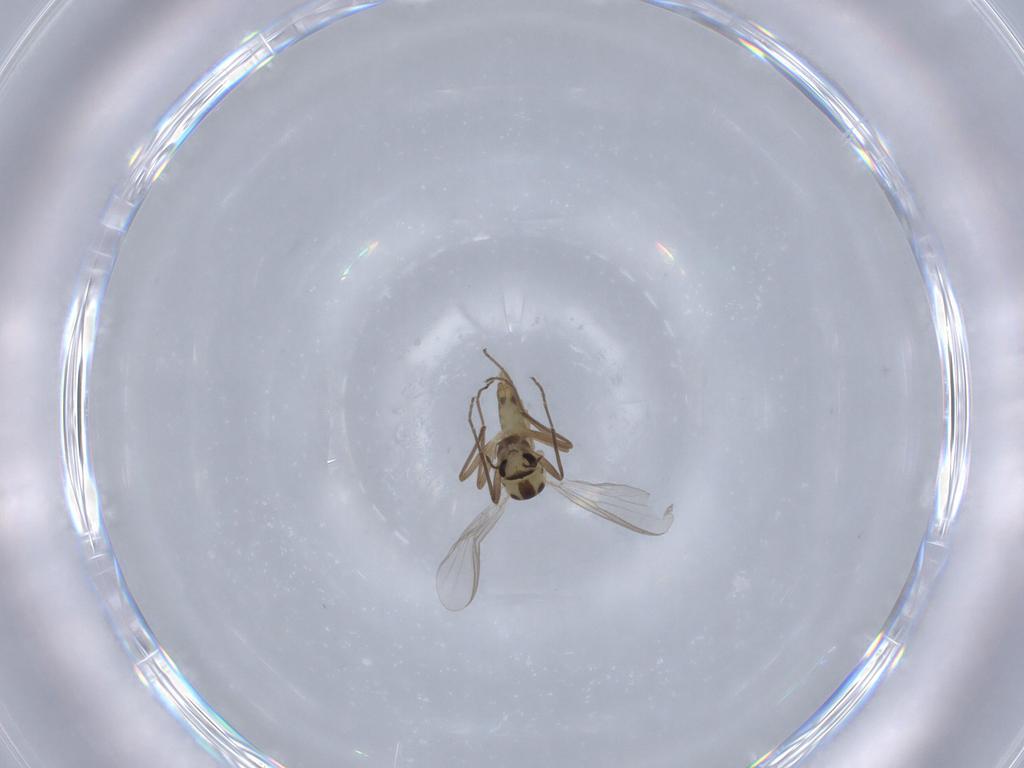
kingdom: Animalia
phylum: Arthropoda
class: Insecta
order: Diptera
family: Chironomidae
